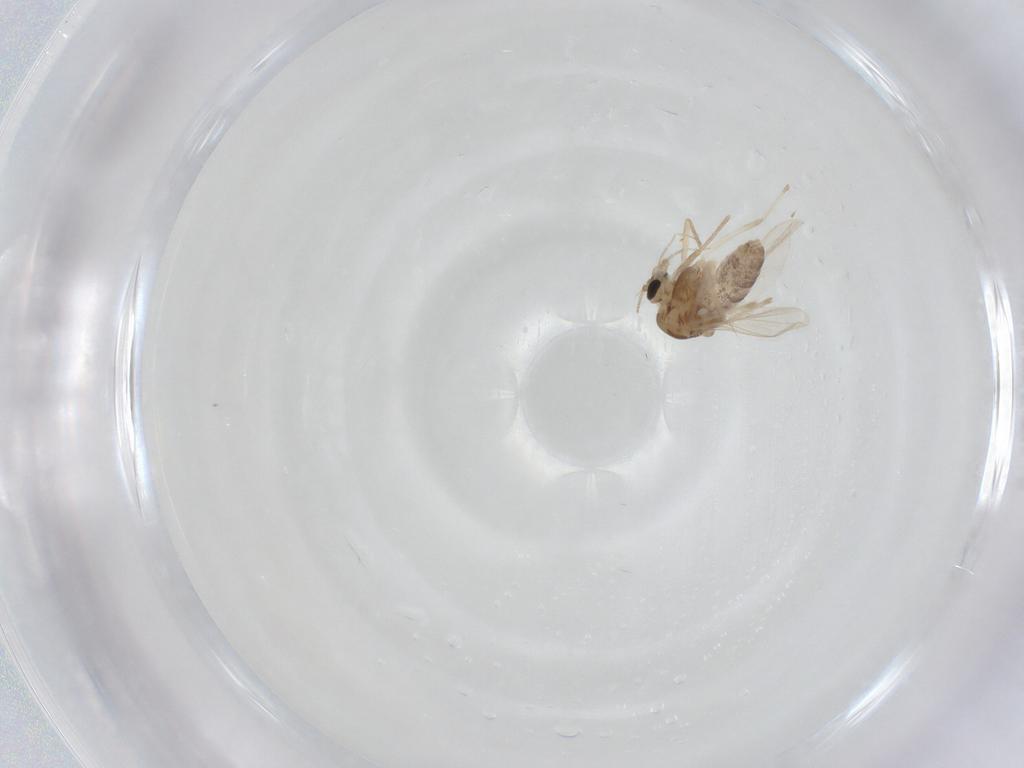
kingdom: Animalia
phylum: Arthropoda
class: Insecta
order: Diptera
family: Chironomidae
